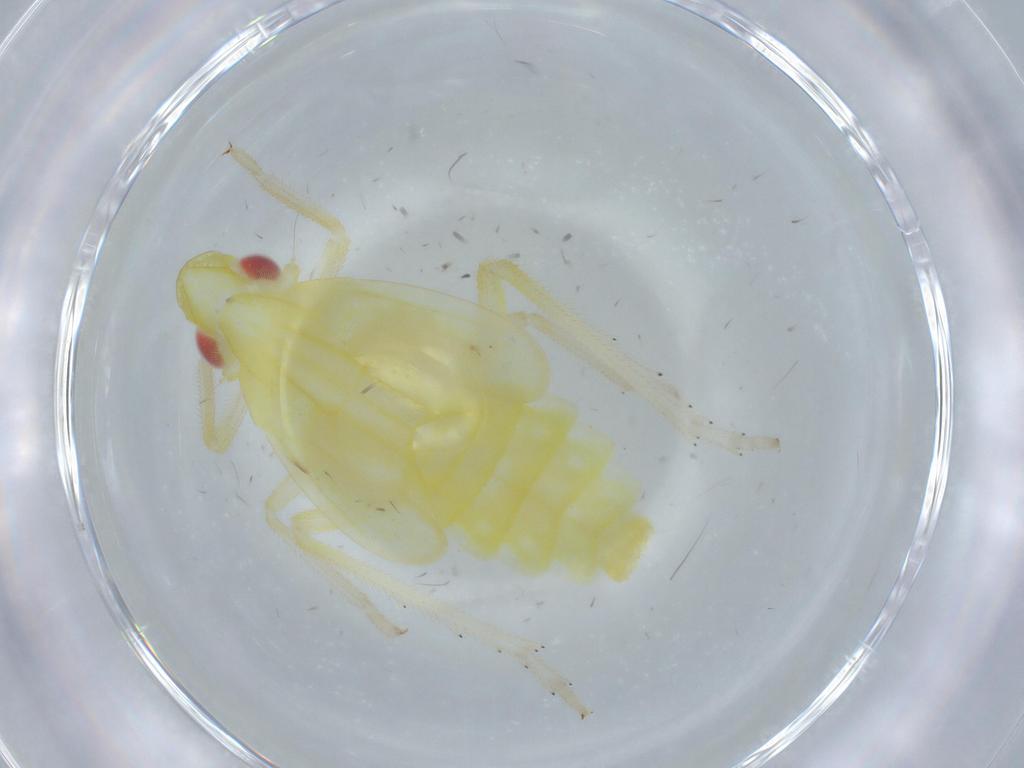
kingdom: Animalia
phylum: Arthropoda
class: Insecta
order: Hemiptera
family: Fulgoroidea_incertae_sedis
